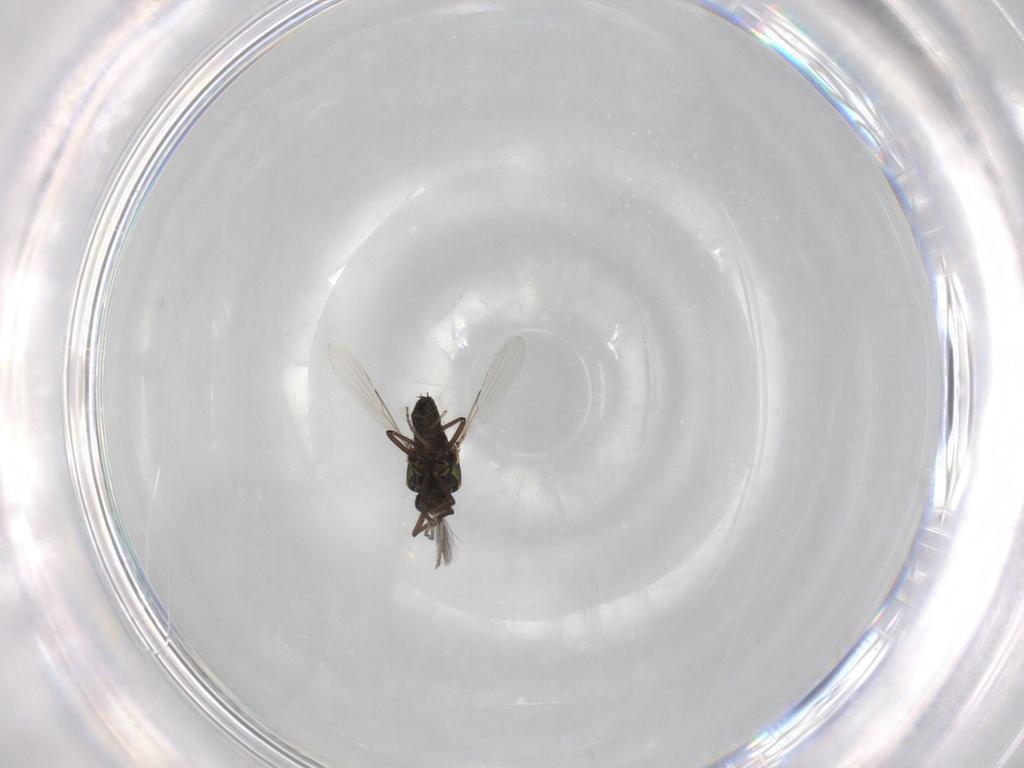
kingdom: Animalia
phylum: Arthropoda
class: Insecta
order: Diptera
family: Ceratopogonidae
